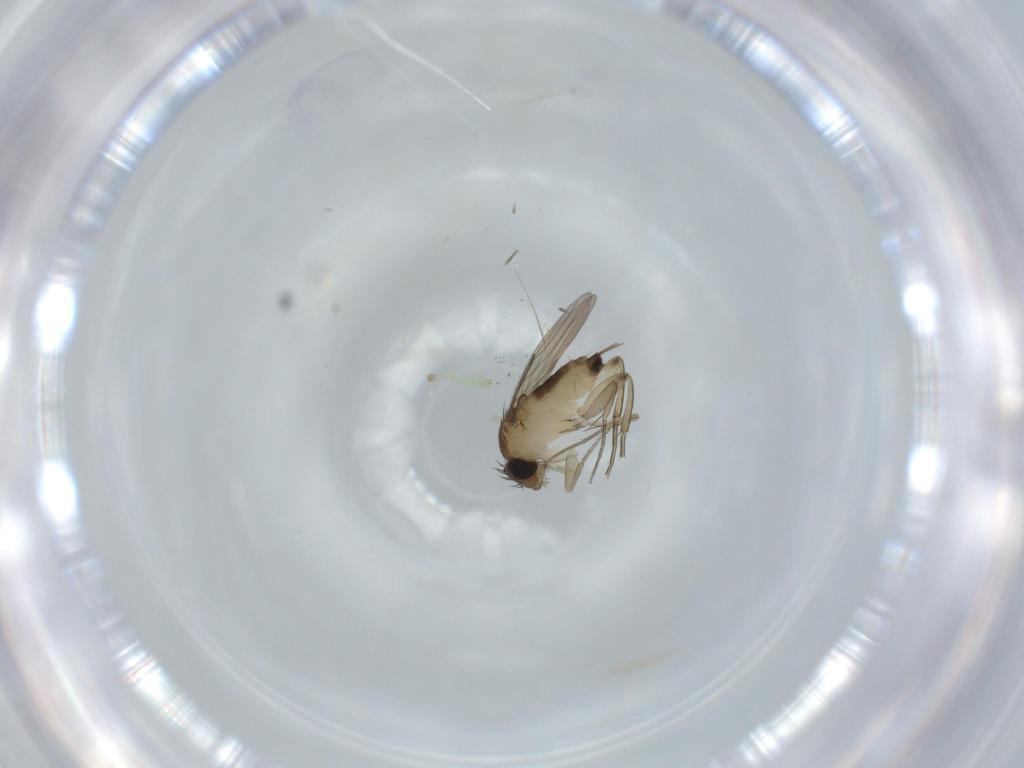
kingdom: Animalia
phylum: Arthropoda
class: Insecta
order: Diptera
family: Phoridae
